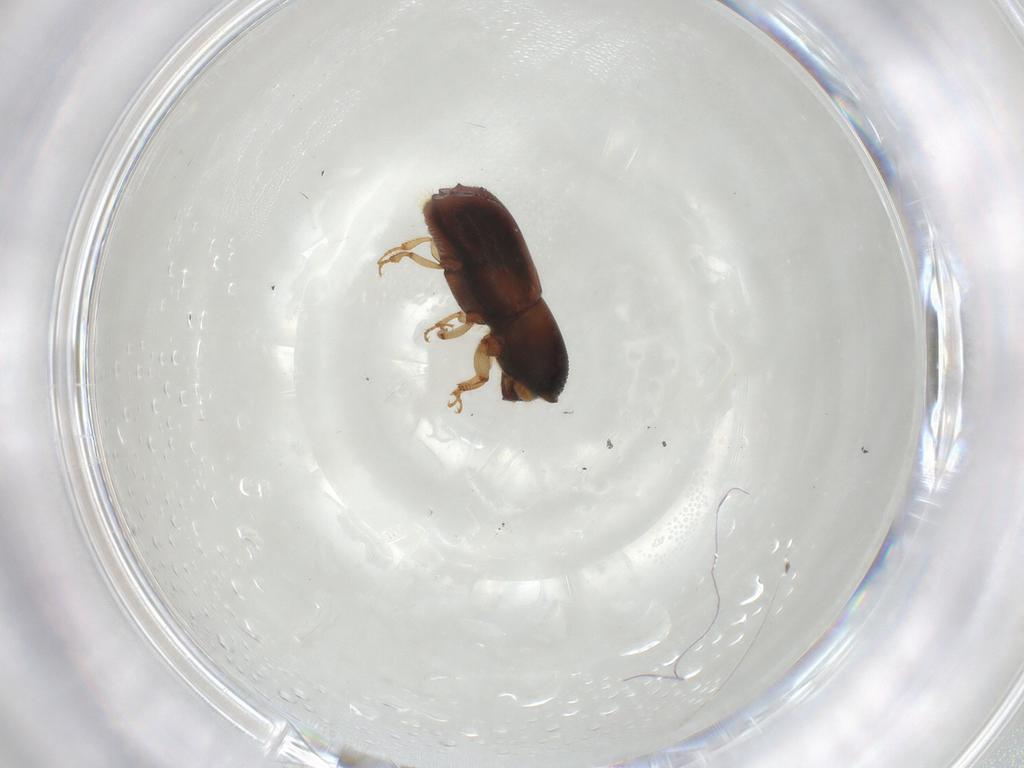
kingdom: Animalia
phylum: Arthropoda
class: Insecta
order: Coleoptera
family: Curculionidae
